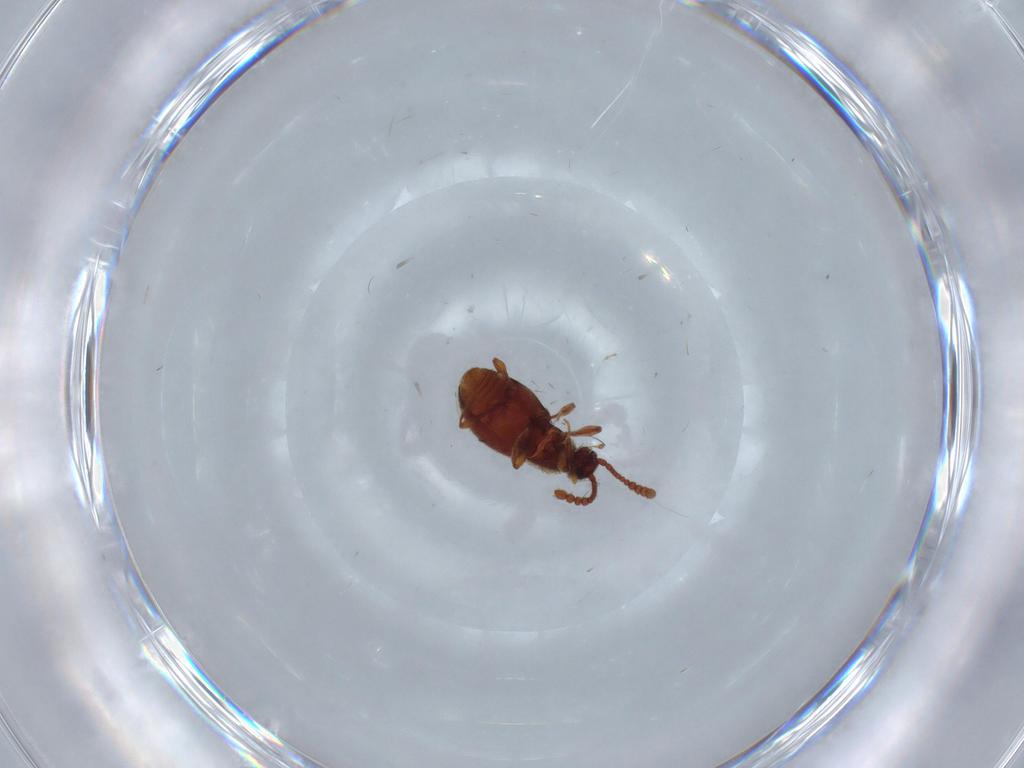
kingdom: Animalia
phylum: Arthropoda
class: Insecta
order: Coleoptera
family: Staphylinidae
